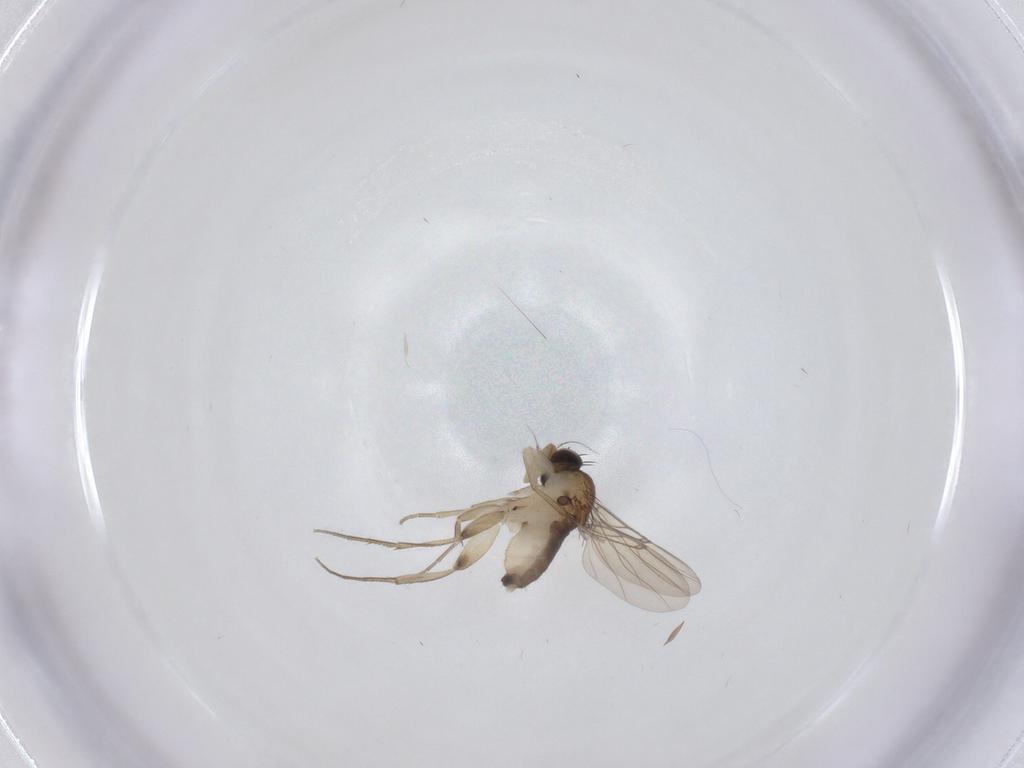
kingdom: Animalia
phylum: Arthropoda
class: Insecta
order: Diptera
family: Phoridae
